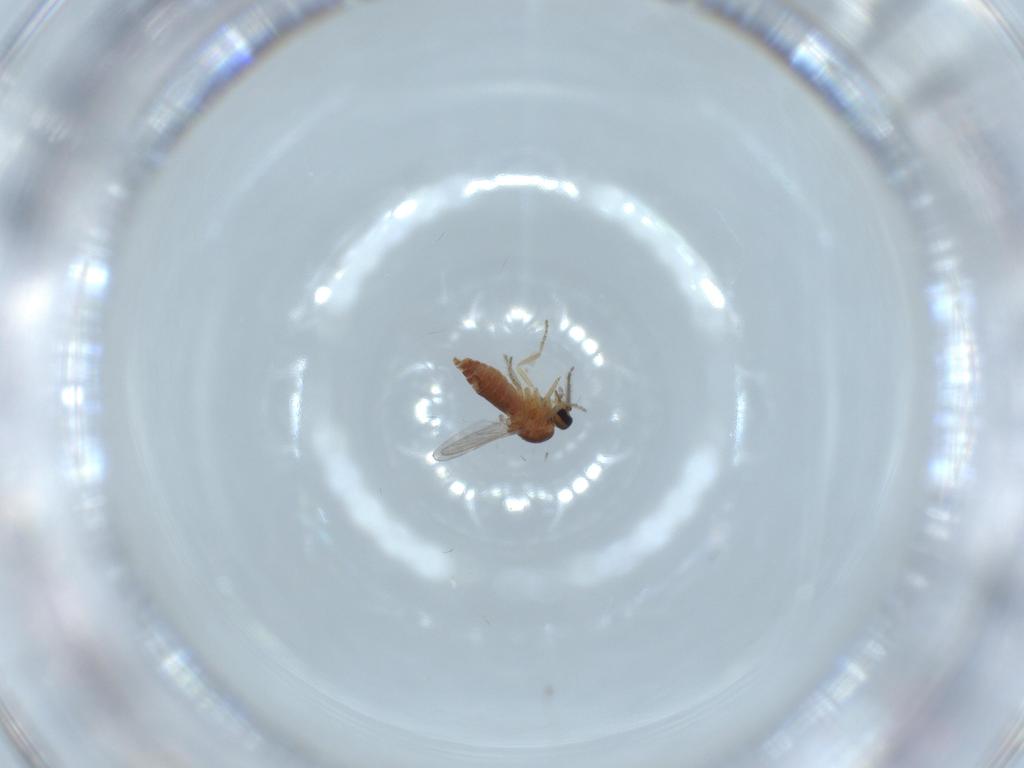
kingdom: Animalia
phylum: Arthropoda
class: Insecta
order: Diptera
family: Ceratopogonidae
